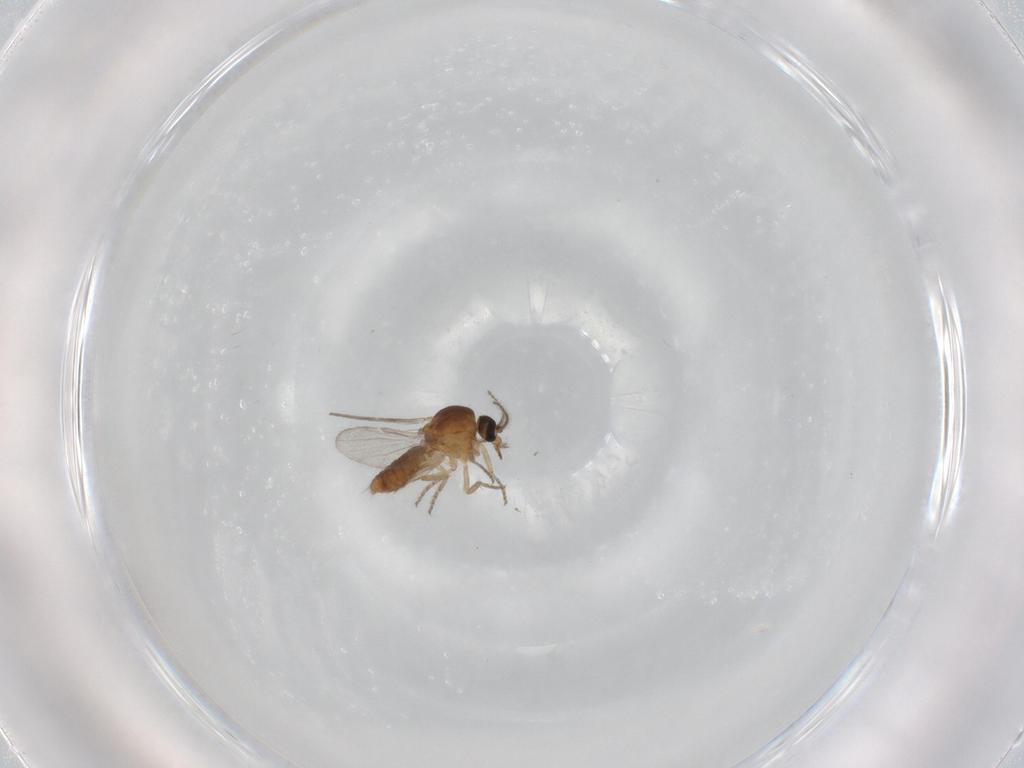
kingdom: Animalia
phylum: Arthropoda
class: Insecta
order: Diptera
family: Ceratopogonidae
